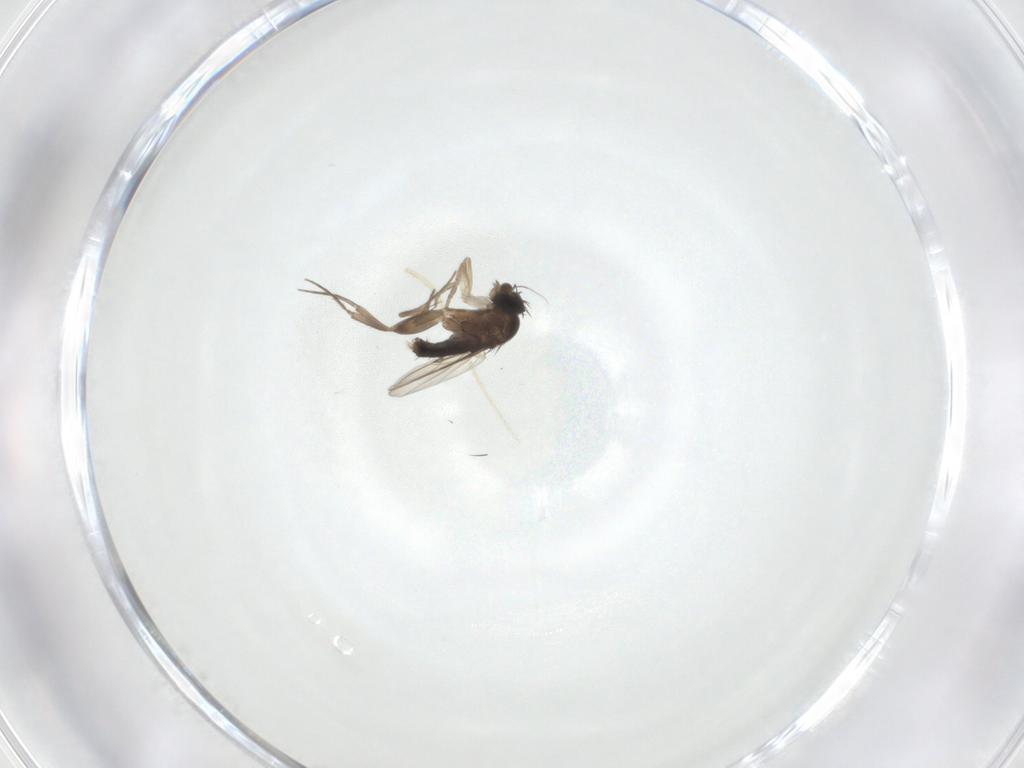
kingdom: Animalia
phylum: Arthropoda
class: Insecta
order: Diptera
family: Phoridae
